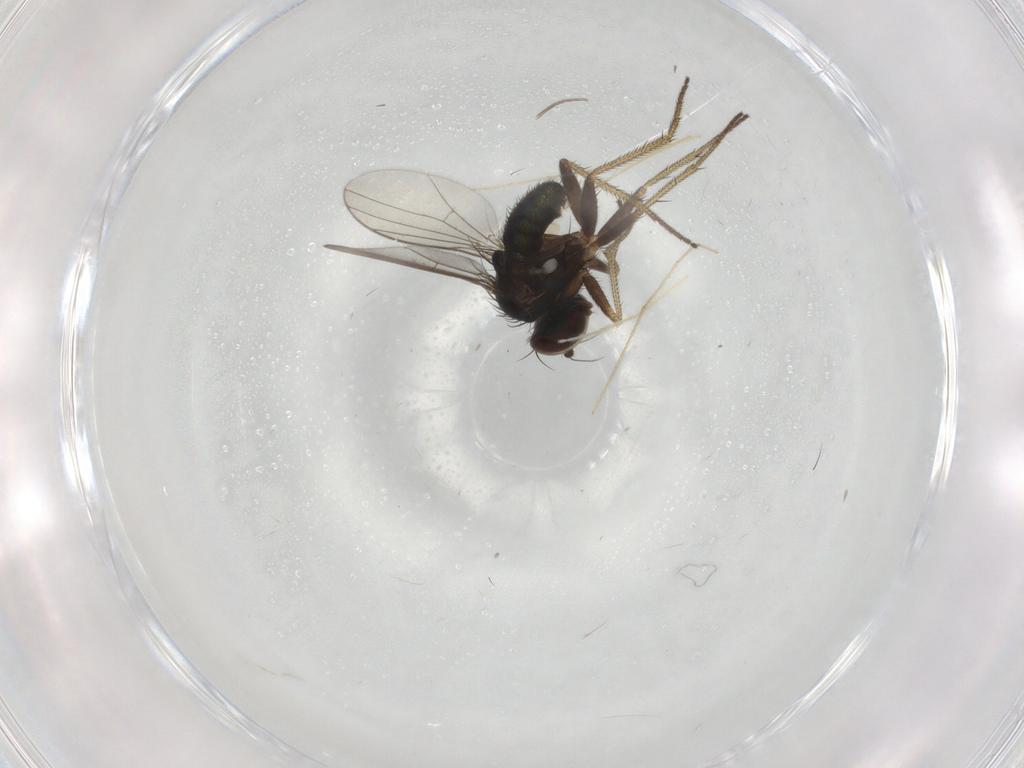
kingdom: Animalia
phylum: Arthropoda
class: Insecta
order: Diptera
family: Chironomidae
